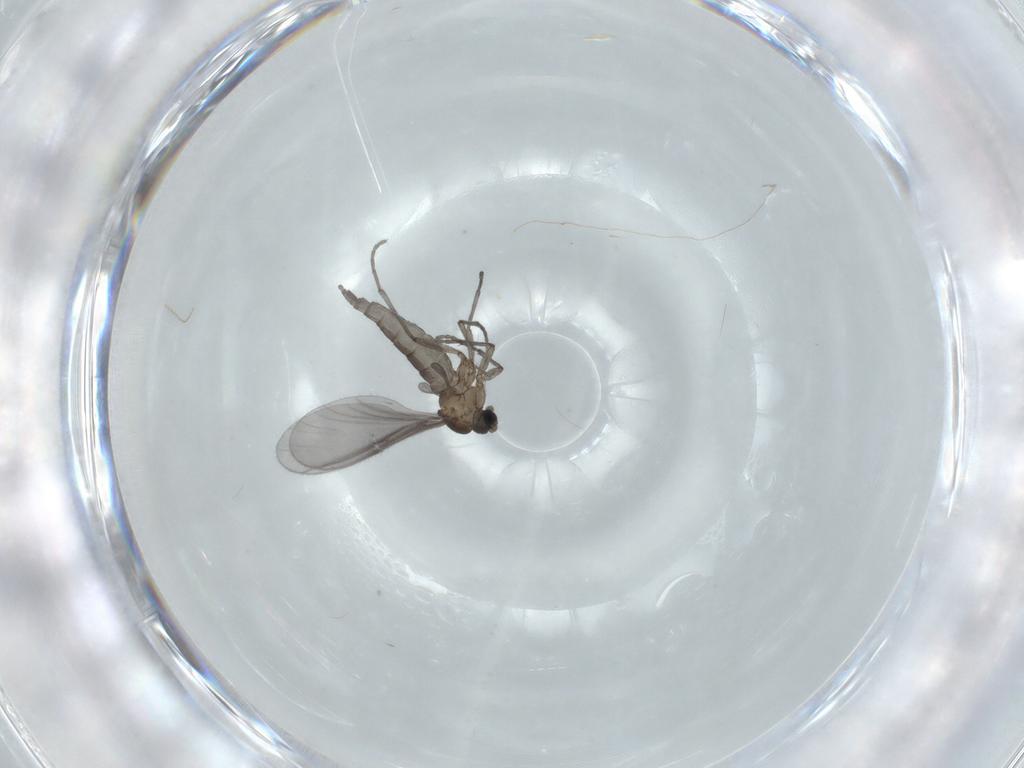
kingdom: Animalia
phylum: Arthropoda
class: Insecta
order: Diptera
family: Sciaridae
